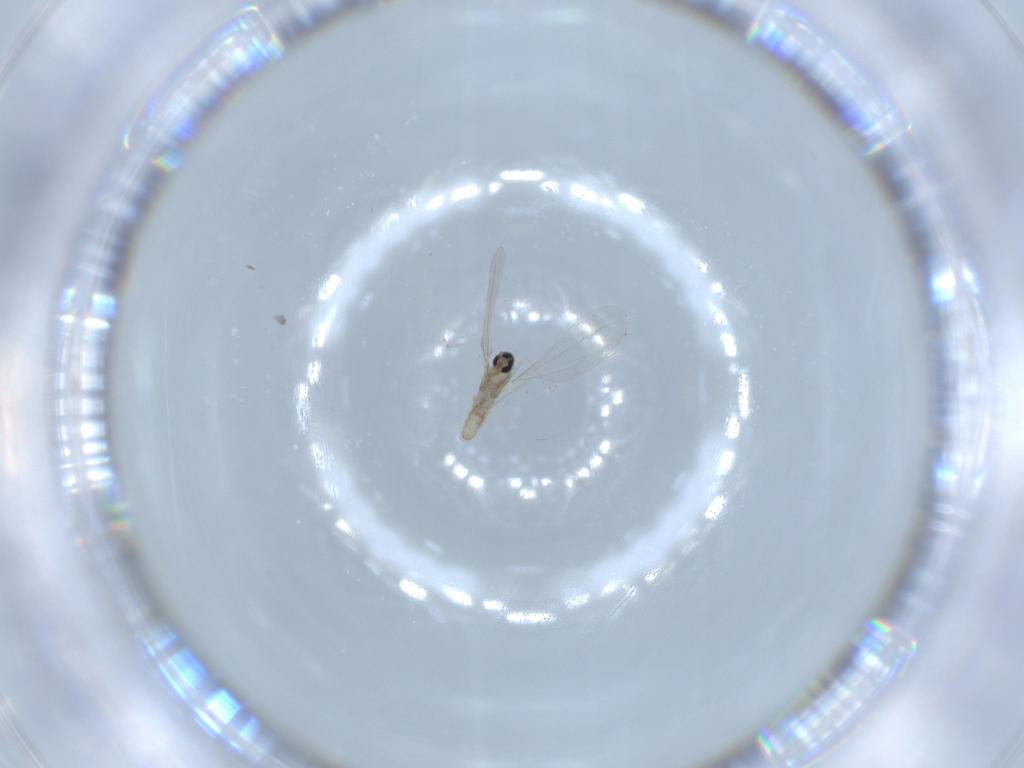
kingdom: Animalia
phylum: Arthropoda
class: Insecta
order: Diptera
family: Cecidomyiidae
